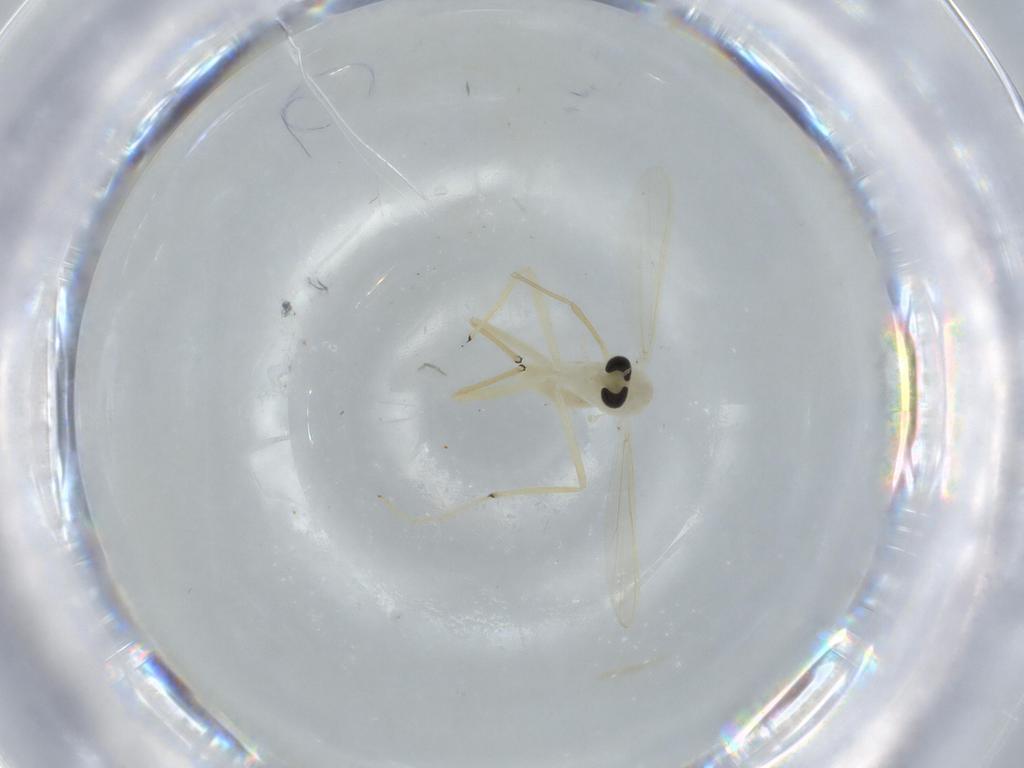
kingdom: Animalia
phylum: Arthropoda
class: Insecta
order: Diptera
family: Chironomidae
